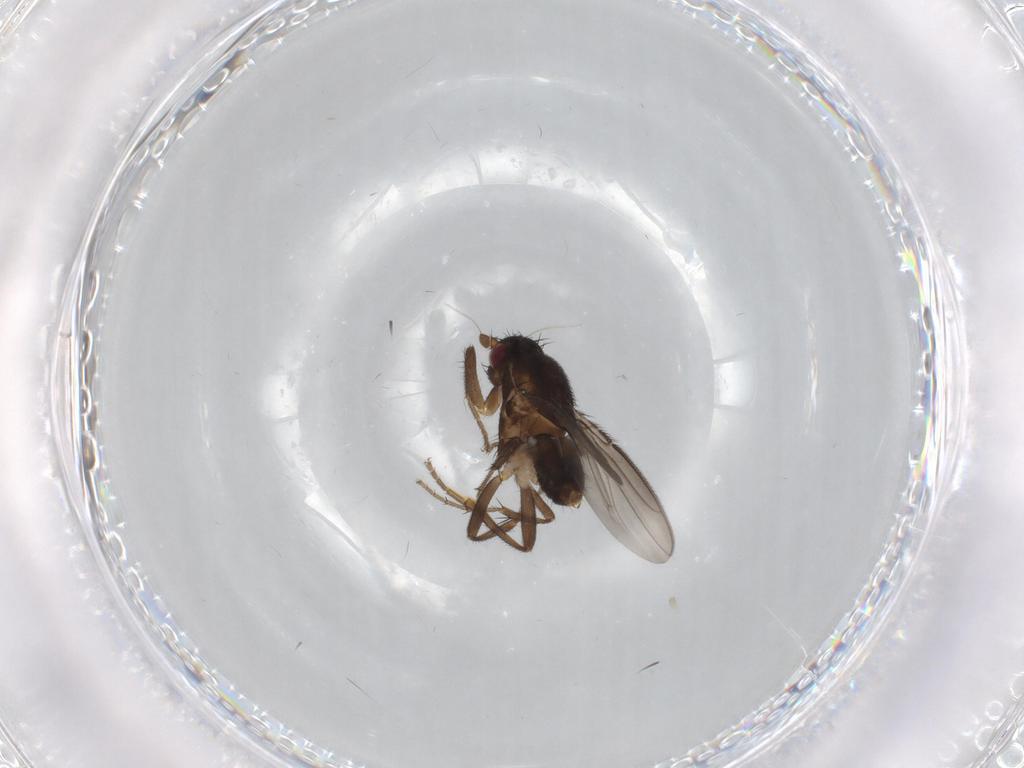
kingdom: Animalia
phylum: Arthropoda
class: Insecta
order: Diptera
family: Sphaeroceridae
